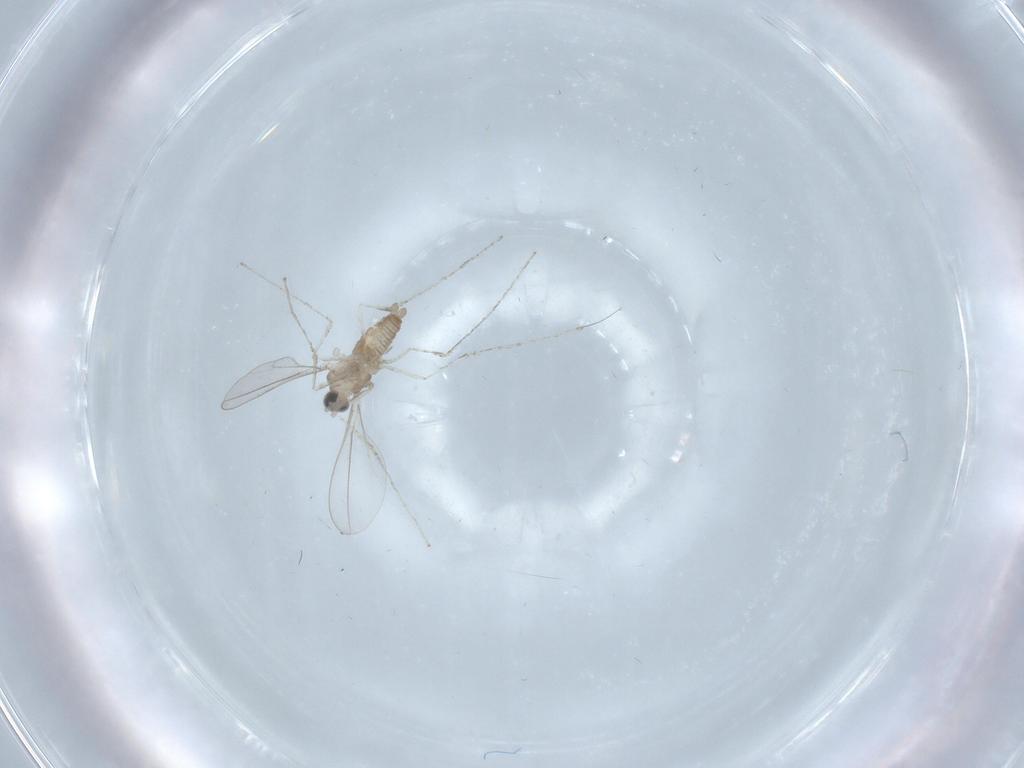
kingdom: Animalia
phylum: Arthropoda
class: Insecta
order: Diptera
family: Cecidomyiidae
